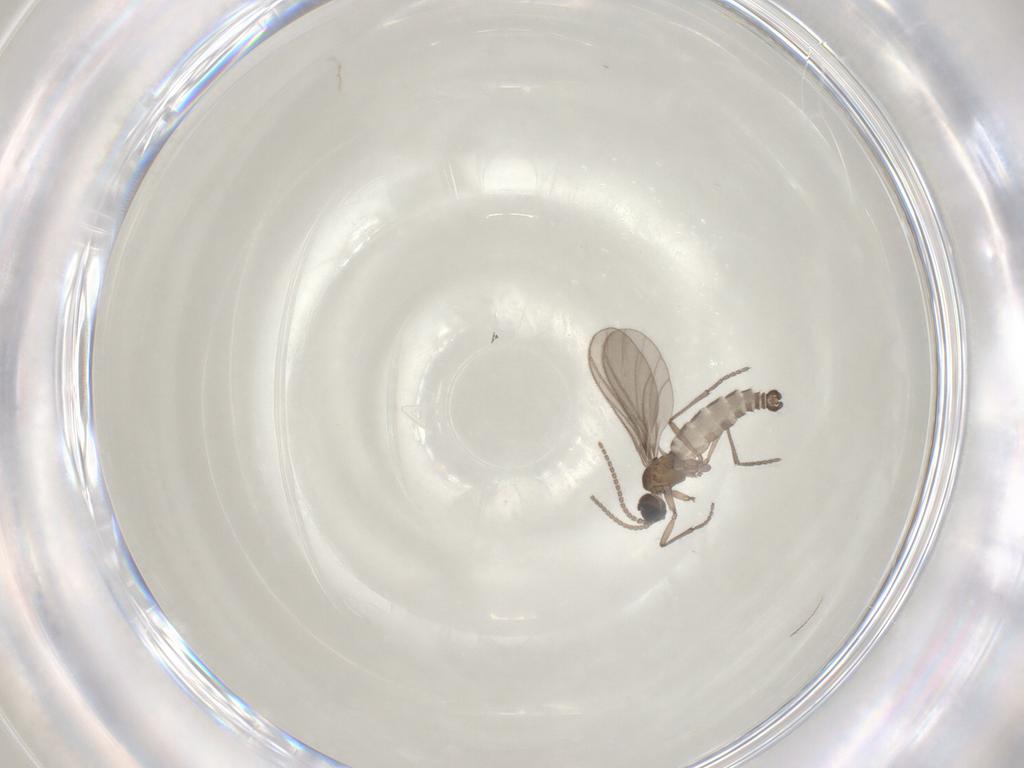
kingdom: Animalia
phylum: Arthropoda
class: Insecta
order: Diptera
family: Sciaridae
